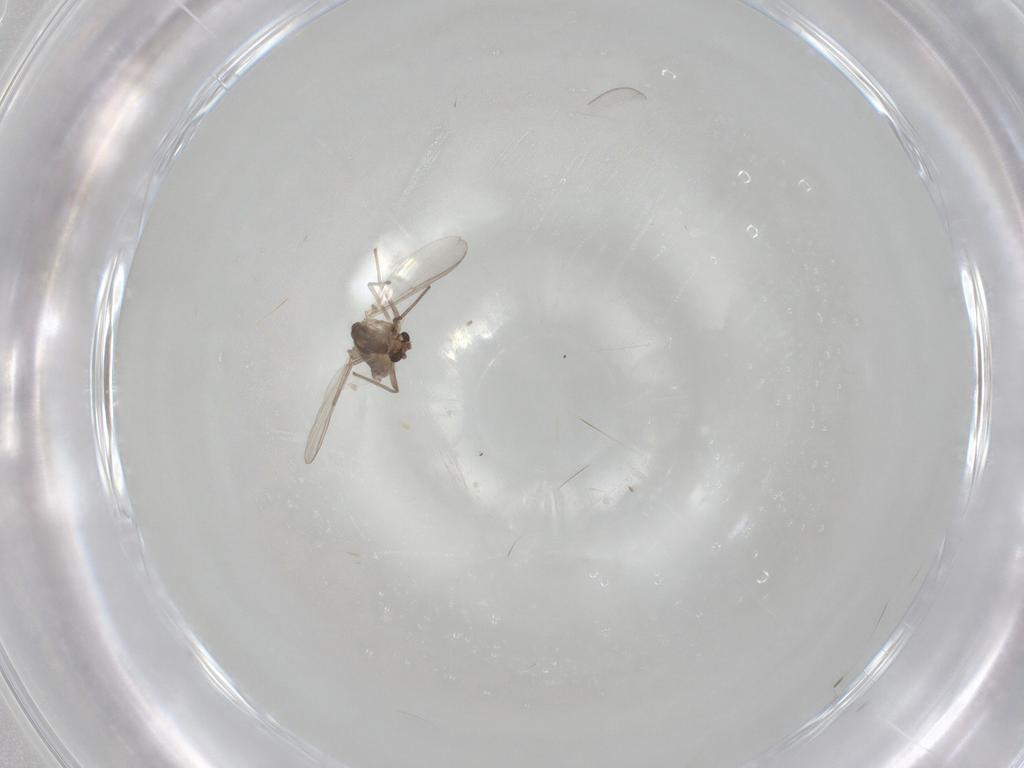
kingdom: Animalia
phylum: Arthropoda
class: Insecta
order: Diptera
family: Chironomidae
